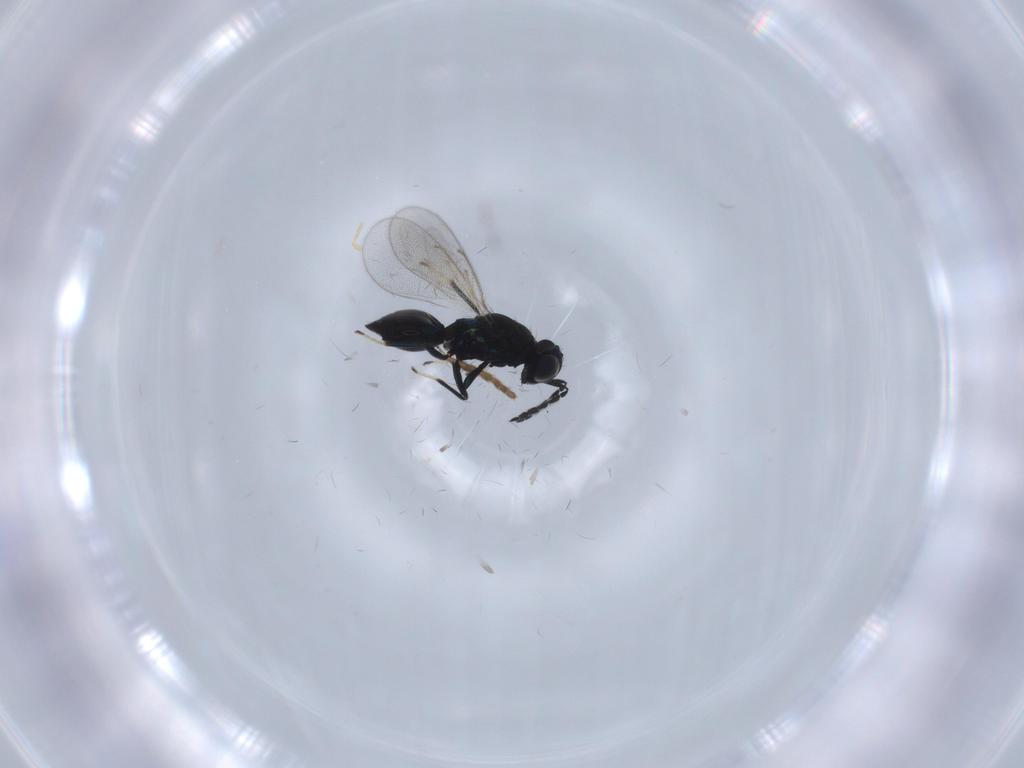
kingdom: Animalia
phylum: Arthropoda
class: Insecta
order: Hymenoptera
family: Eulophidae
